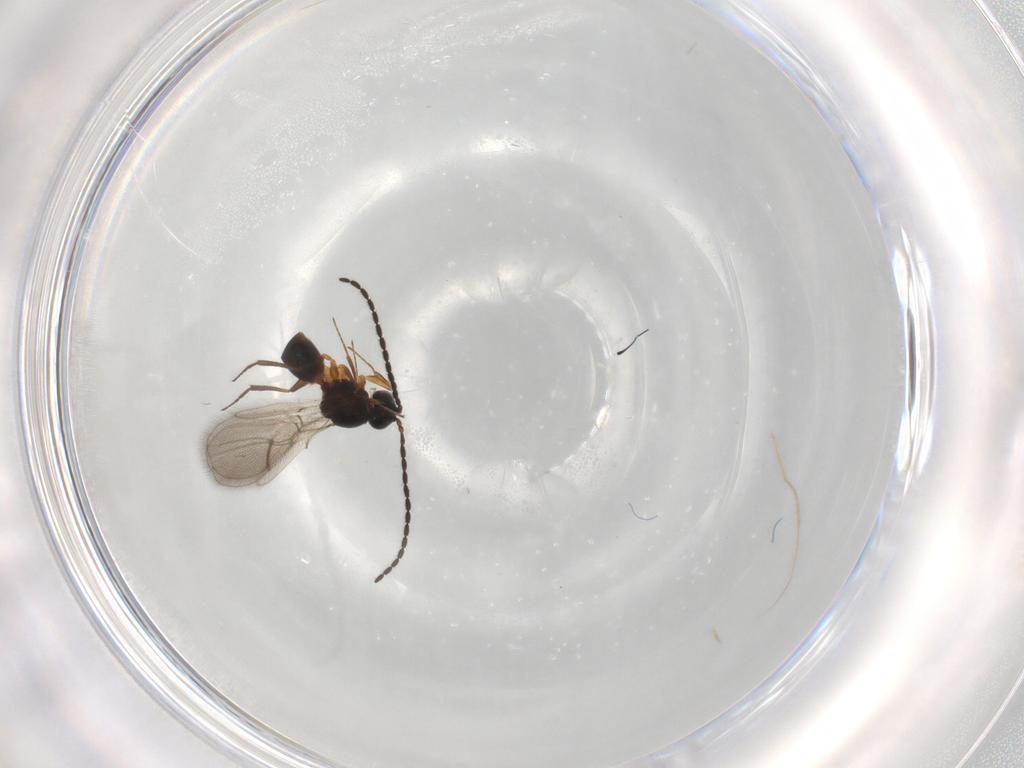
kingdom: Animalia
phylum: Arthropoda
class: Insecta
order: Hymenoptera
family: Figitidae
